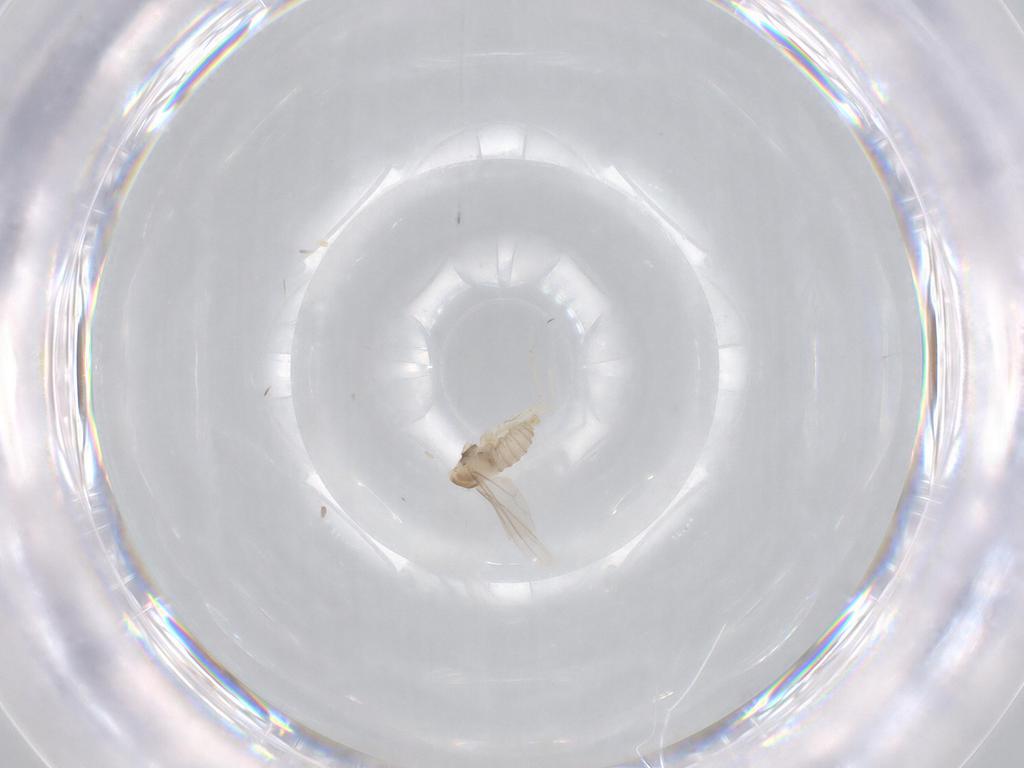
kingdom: Animalia
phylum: Arthropoda
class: Insecta
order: Diptera
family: Cecidomyiidae
